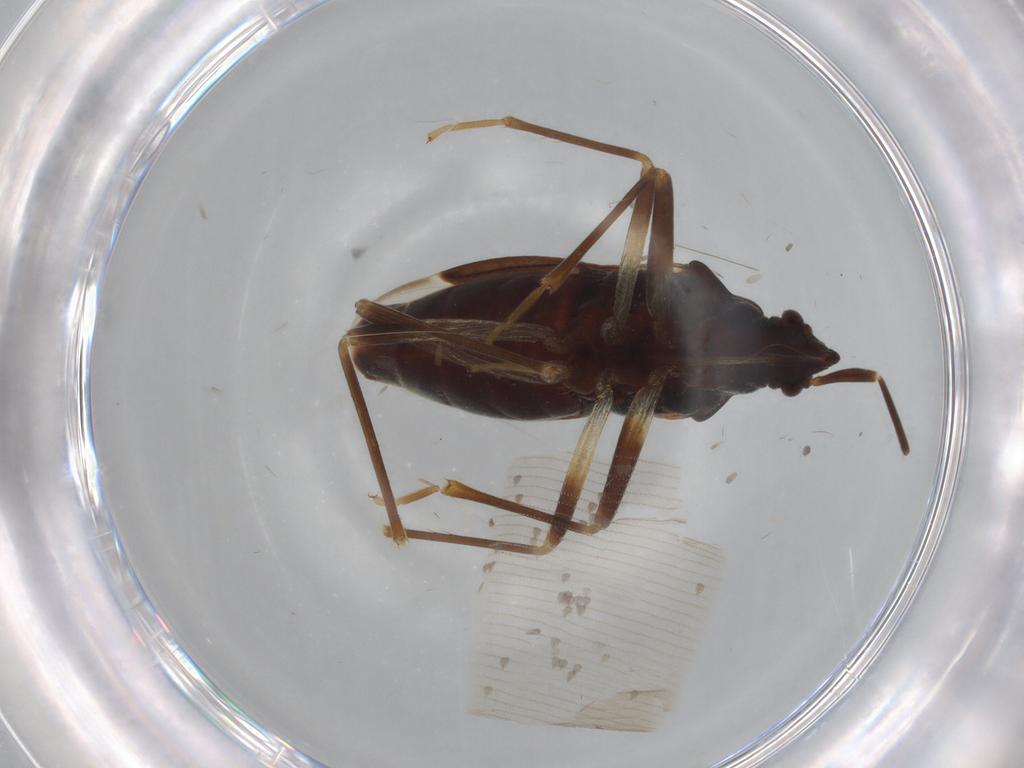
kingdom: Animalia
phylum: Arthropoda
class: Insecta
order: Hemiptera
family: Rhyparochromidae
